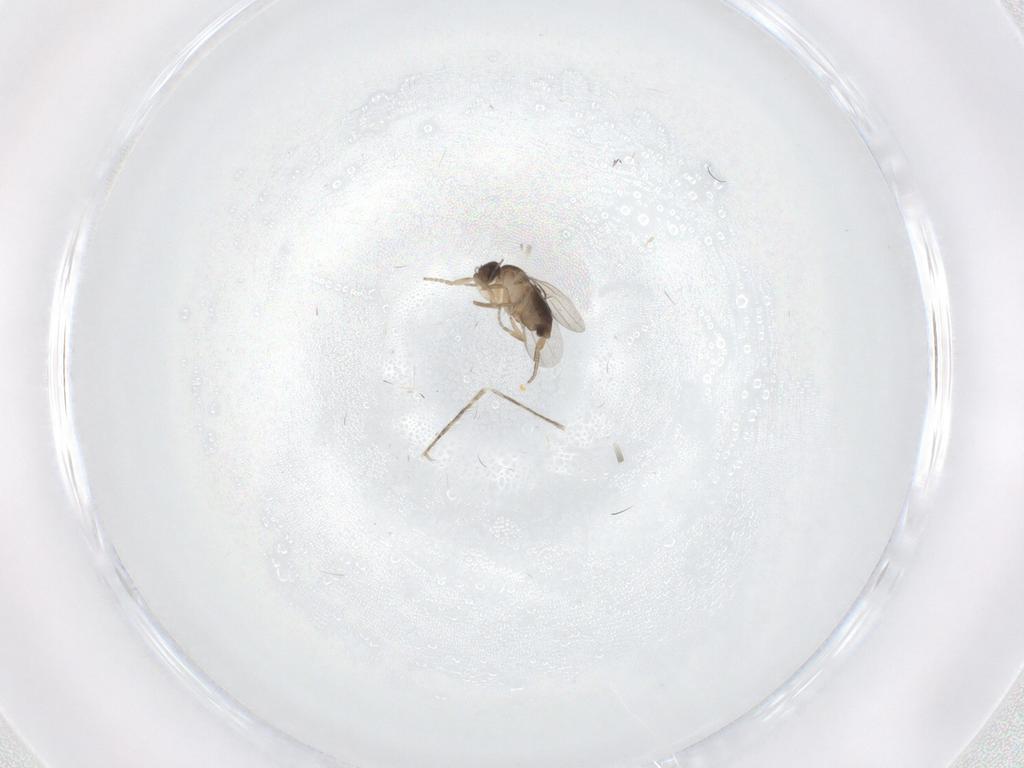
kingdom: Animalia
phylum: Arthropoda
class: Insecta
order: Diptera
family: Cecidomyiidae
